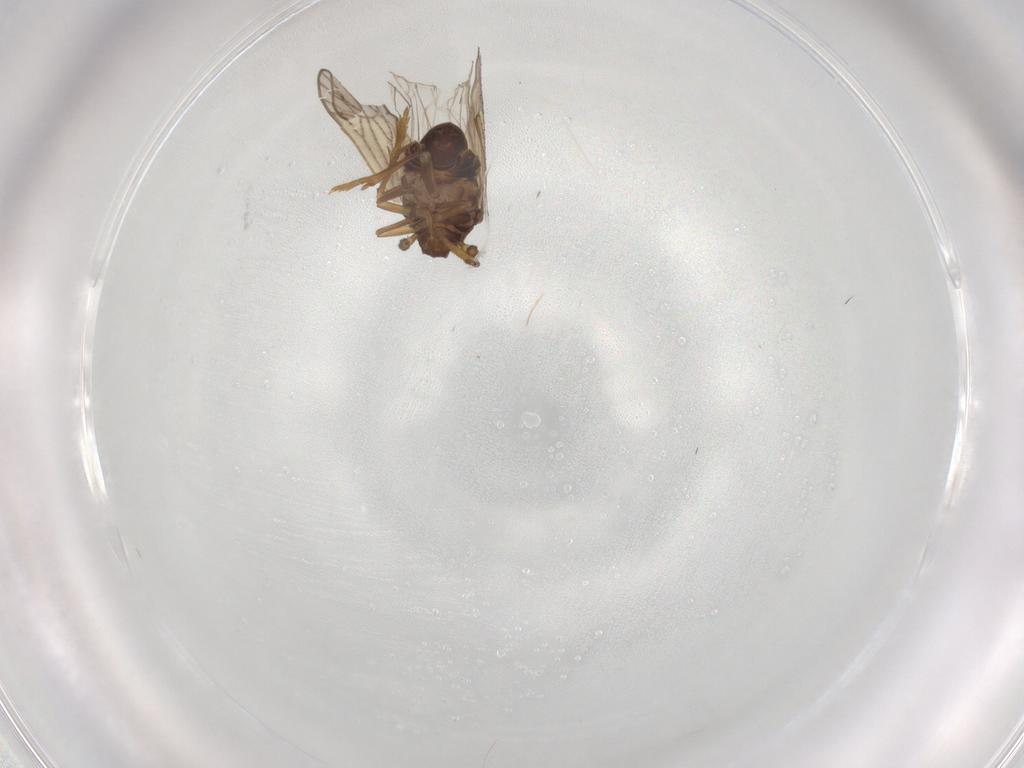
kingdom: Animalia
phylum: Arthropoda
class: Insecta
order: Hemiptera
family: Delphacidae
